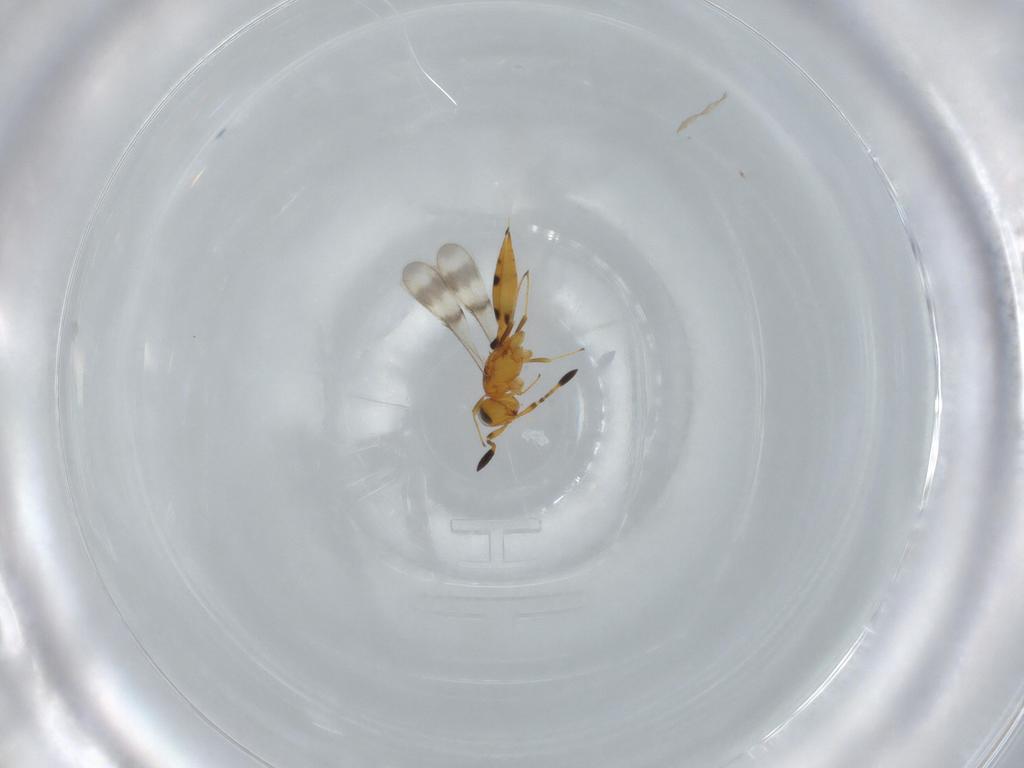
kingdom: Animalia
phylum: Arthropoda
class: Insecta
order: Hymenoptera
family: Scelionidae
